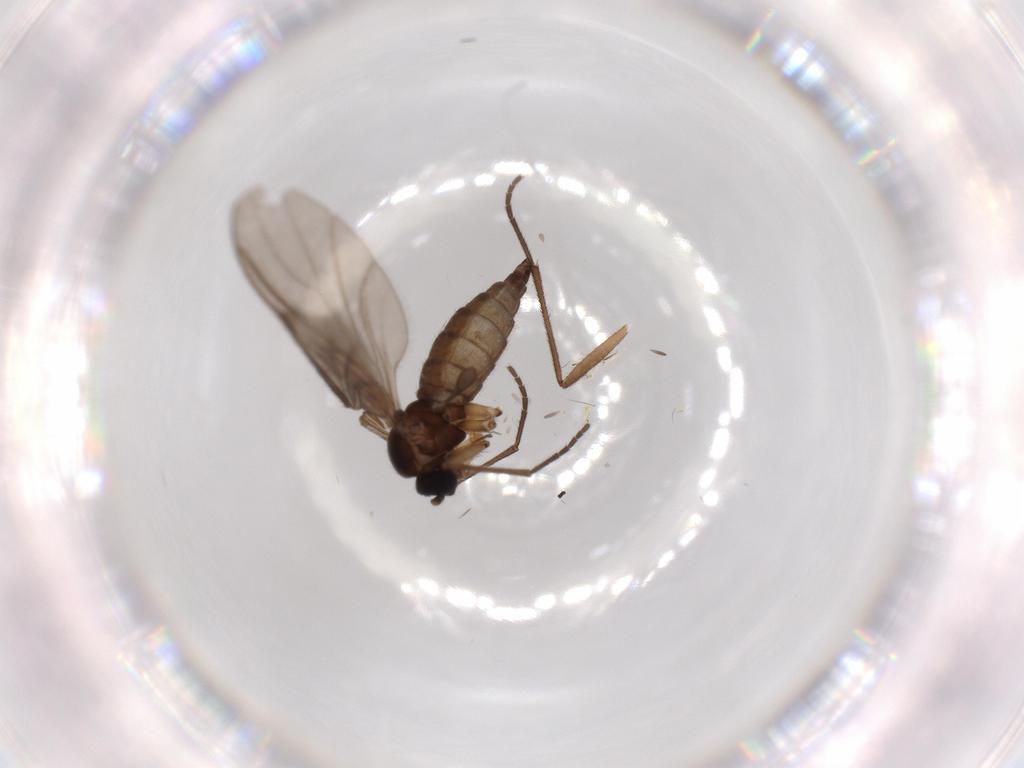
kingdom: Animalia
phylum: Arthropoda
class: Insecta
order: Diptera
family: Sciaridae
